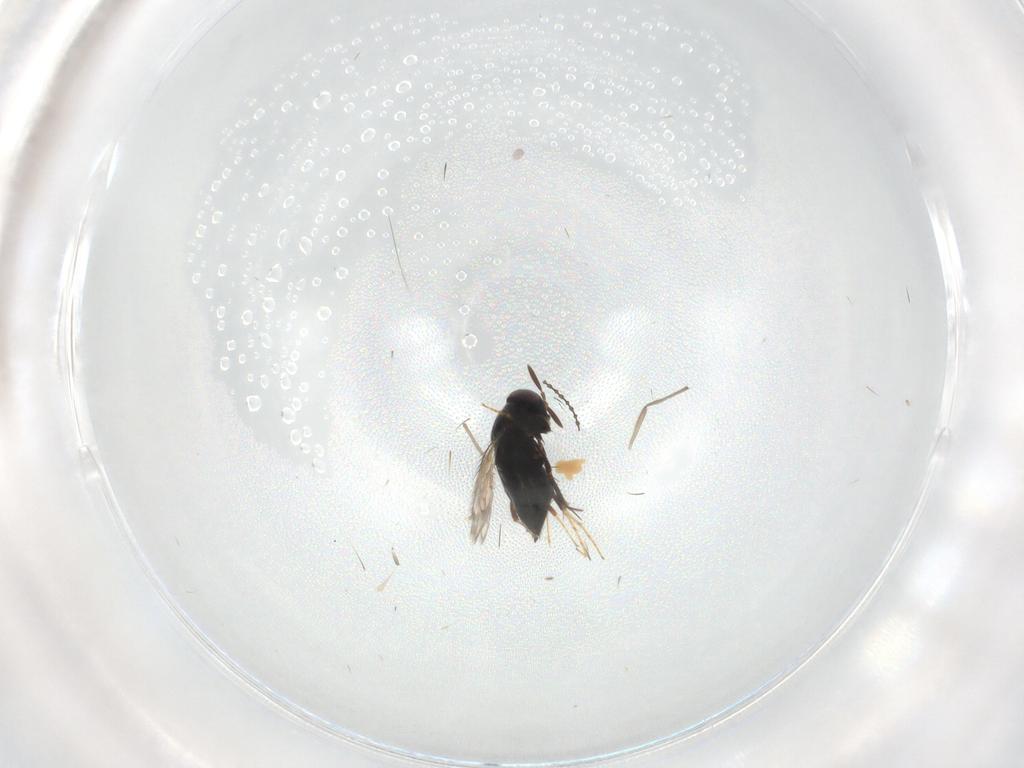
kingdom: Animalia
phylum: Arthropoda
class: Insecta
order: Hymenoptera
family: Signiphoridae
